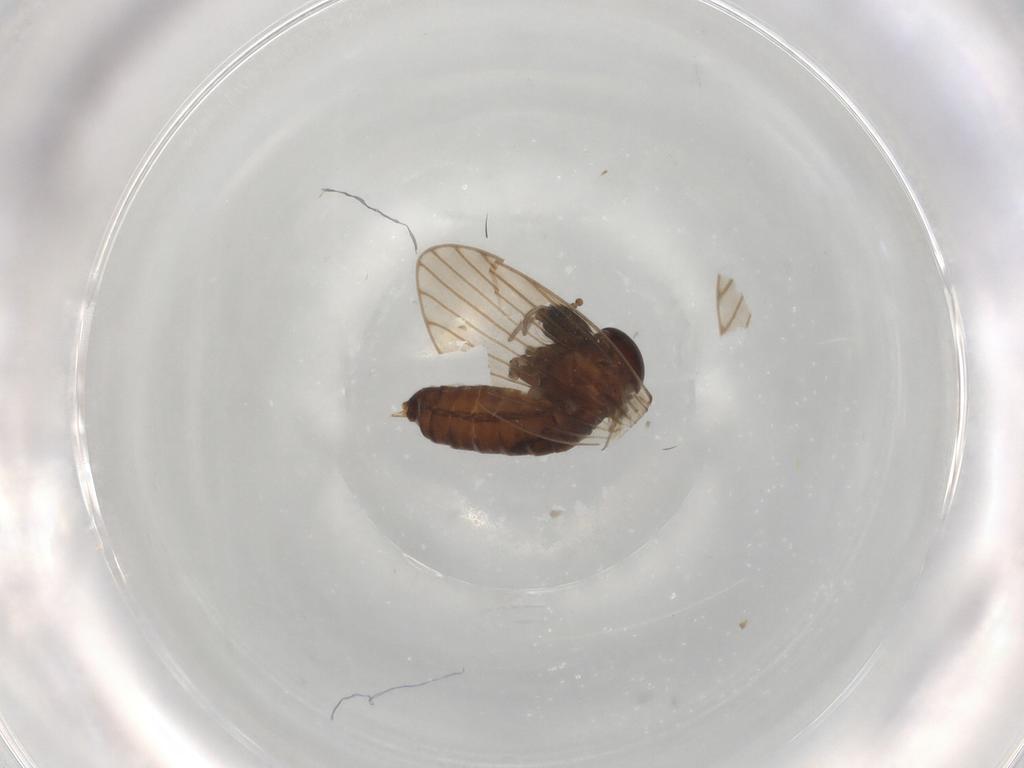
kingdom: Animalia
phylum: Arthropoda
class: Insecta
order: Diptera
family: Psychodidae
